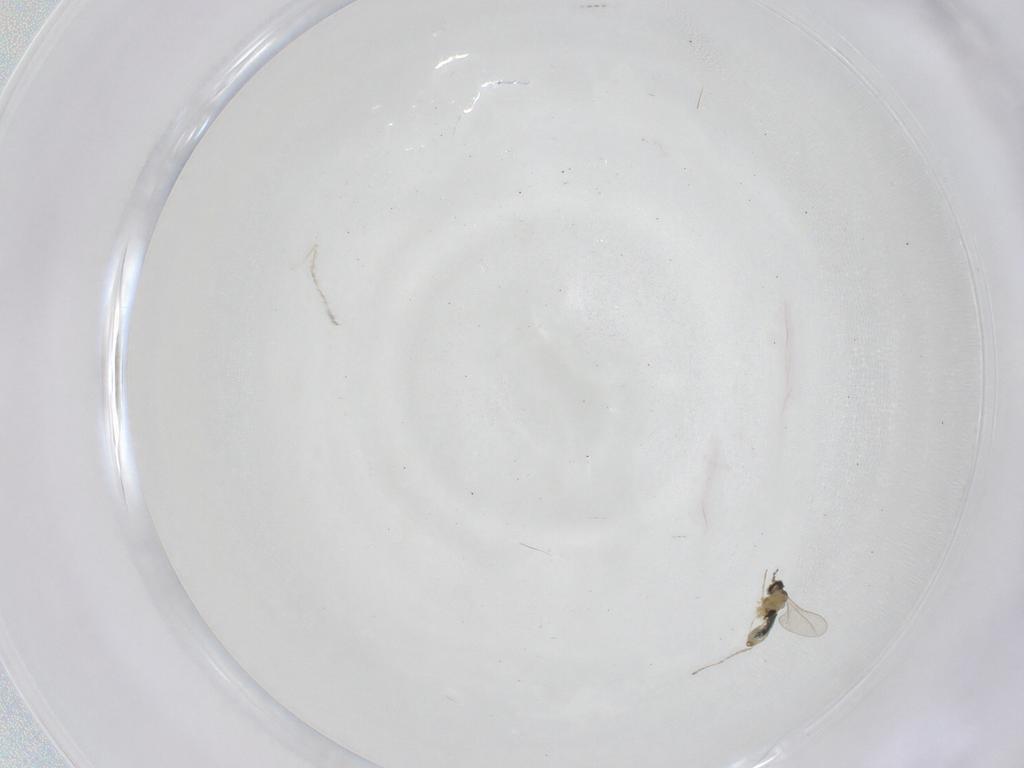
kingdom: Animalia
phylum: Arthropoda
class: Insecta
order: Diptera
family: Cecidomyiidae
